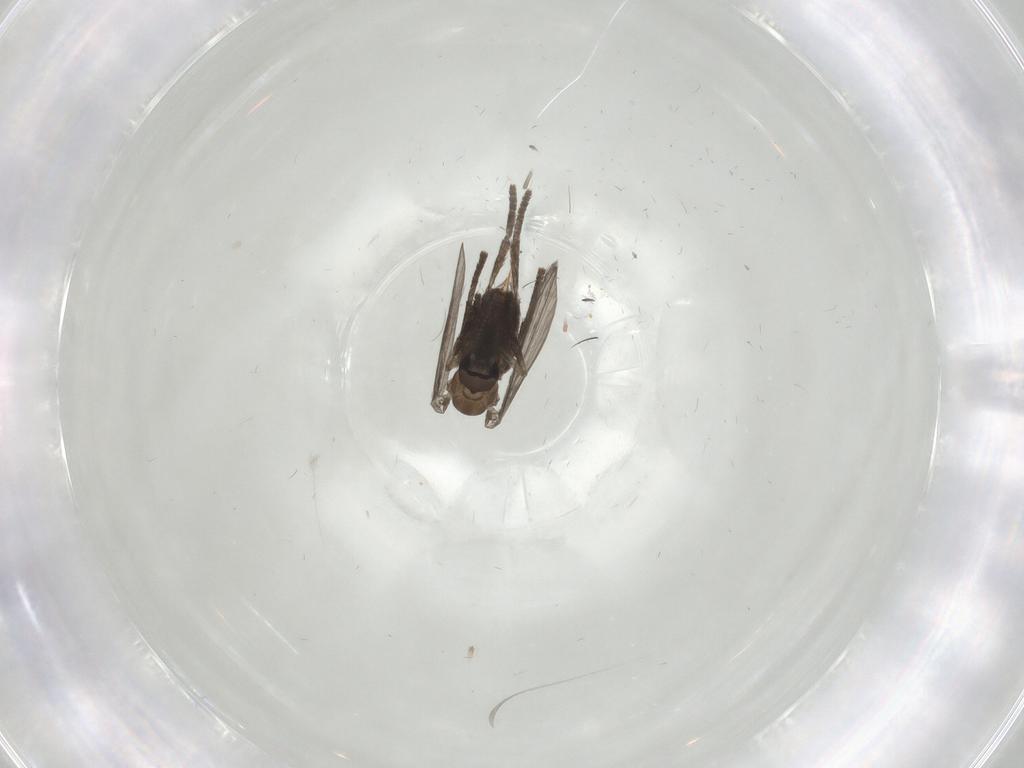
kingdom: Animalia
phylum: Arthropoda
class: Insecta
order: Diptera
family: Psychodidae
